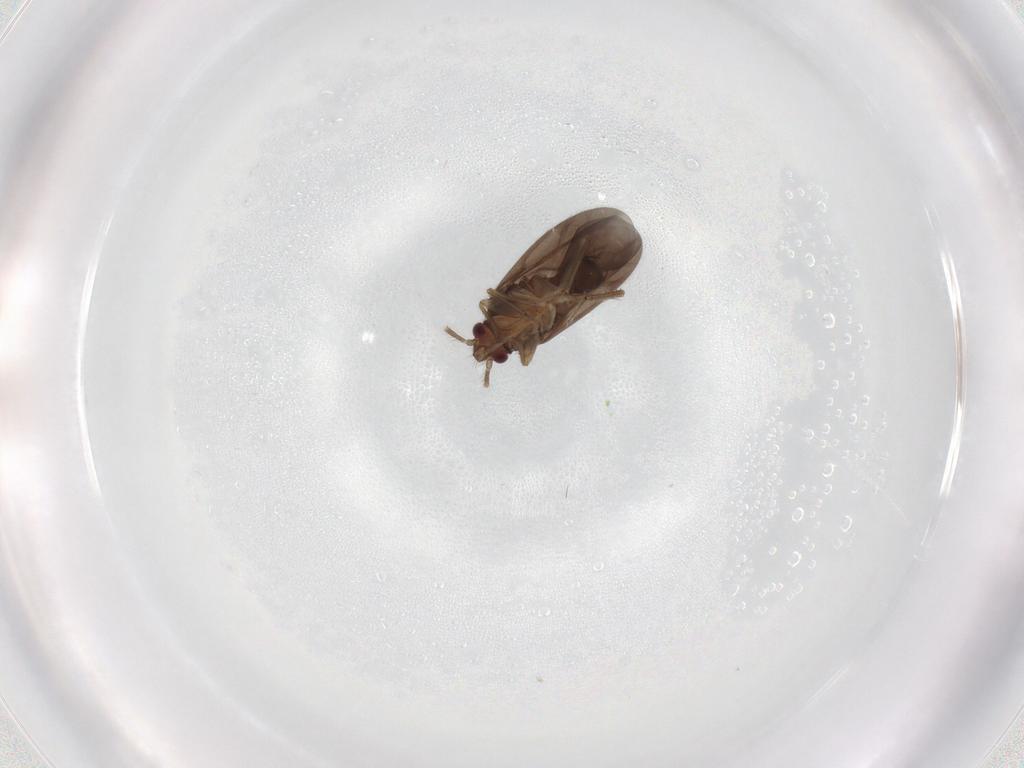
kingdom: Animalia
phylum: Arthropoda
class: Insecta
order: Hemiptera
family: Ceratocombidae
